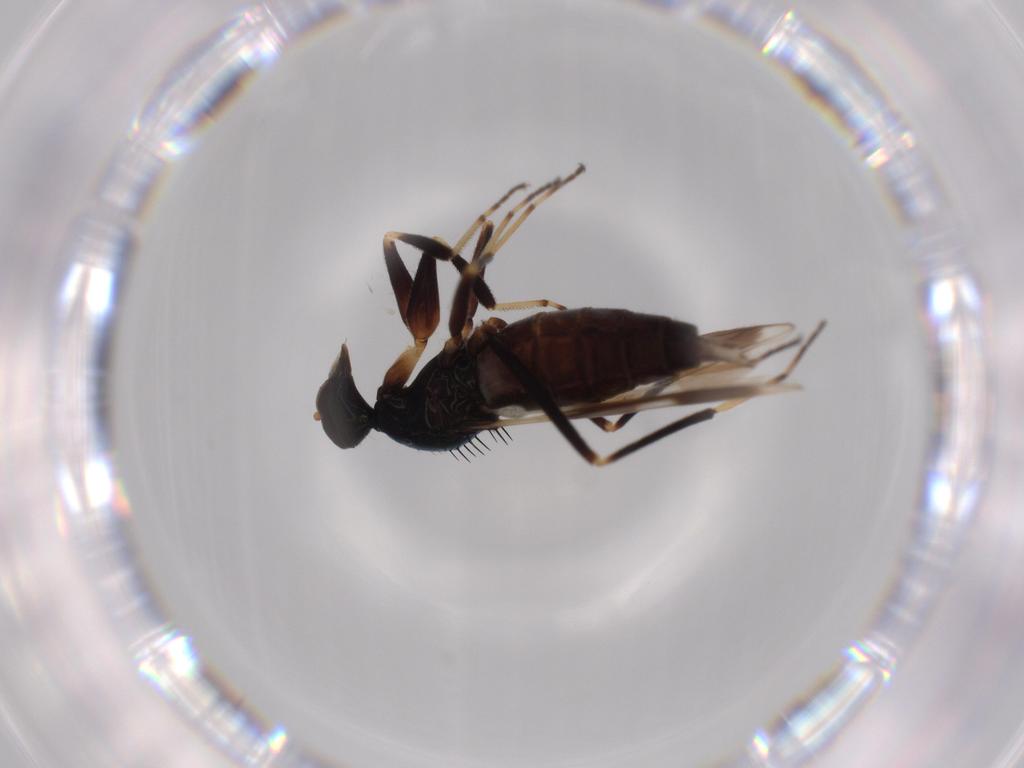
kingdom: Animalia
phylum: Arthropoda
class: Insecta
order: Diptera
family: Hybotidae
